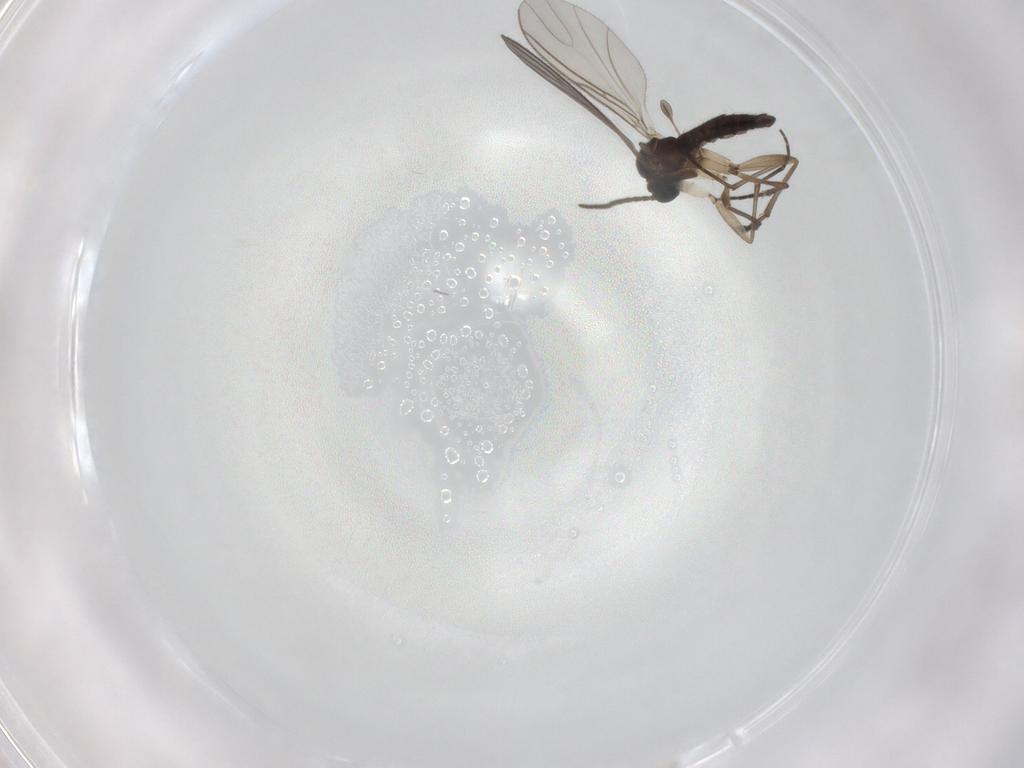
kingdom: Animalia
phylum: Arthropoda
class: Insecta
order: Diptera
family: Sciaridae
